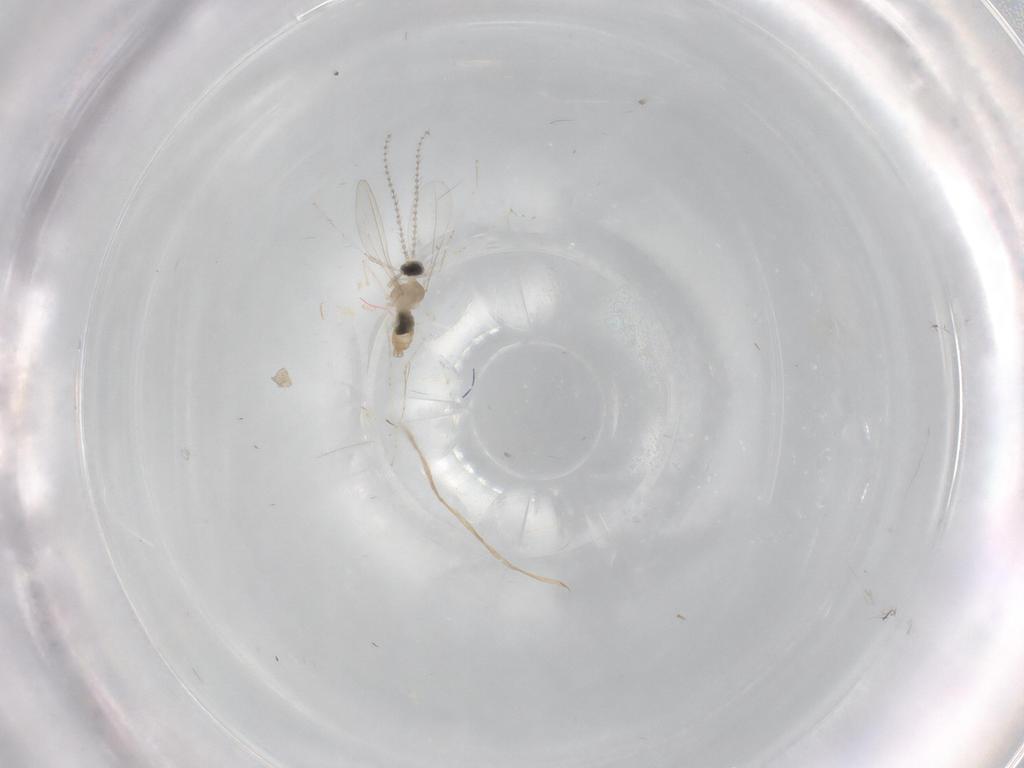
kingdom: Animalia
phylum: Arthropoda
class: Insecta
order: Diptera
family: Cecidomyiidae
